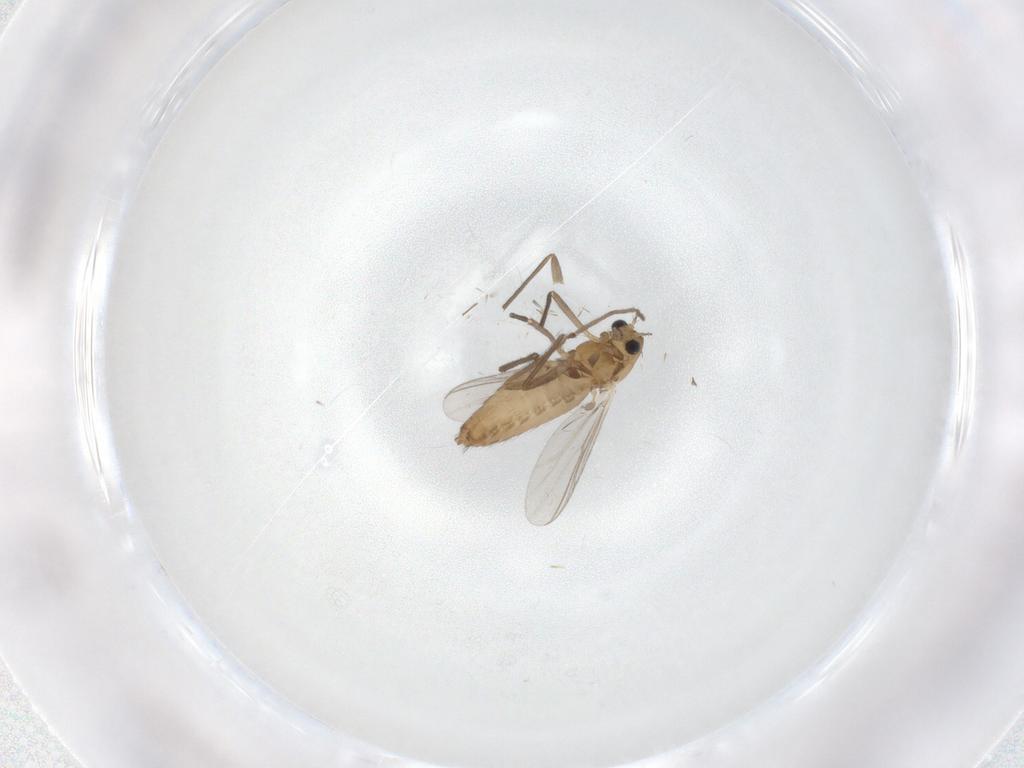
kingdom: Animalia
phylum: Arthropoda
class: Insecta
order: Diptera
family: Chironomidae
